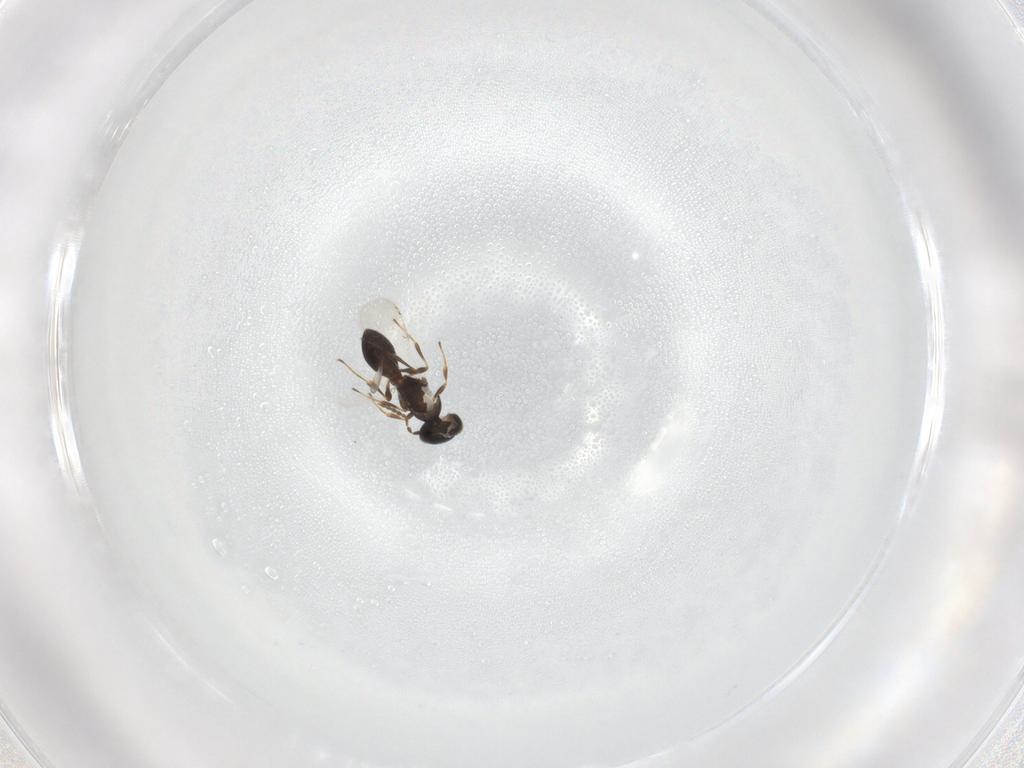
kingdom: Animalia
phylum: Arthropoda
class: Insecta
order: Hymenoptera
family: Platygastridae
